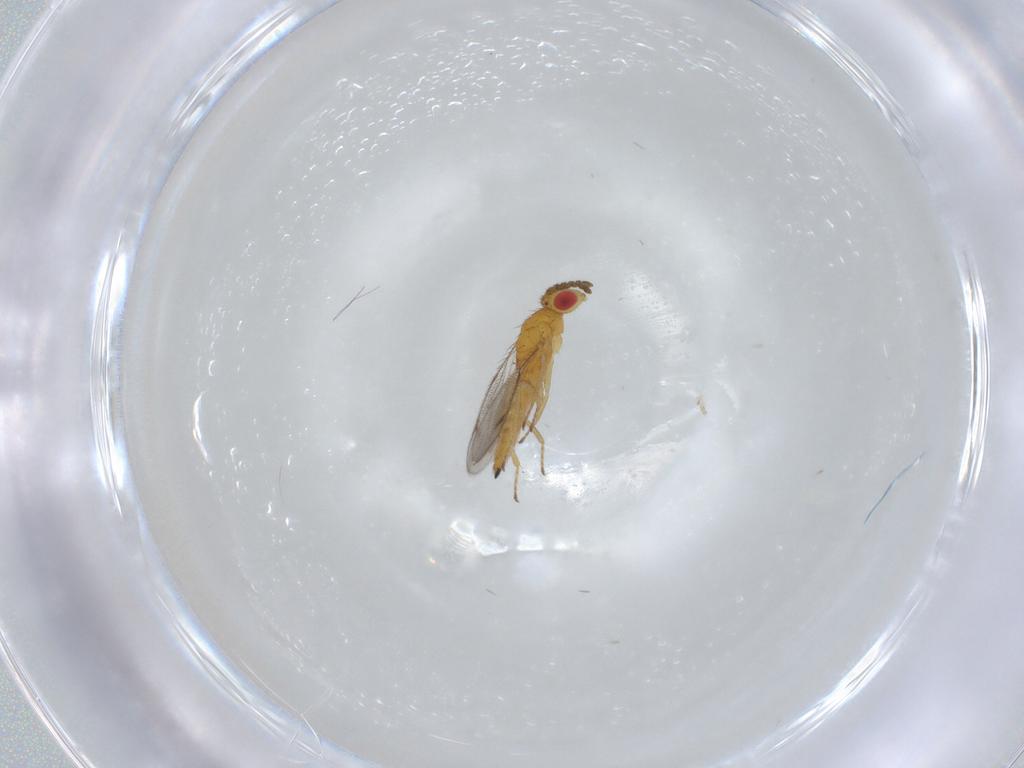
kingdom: Animalia
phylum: Arthropoda
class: Insecta
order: Hymenoptera
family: Eulophidae
